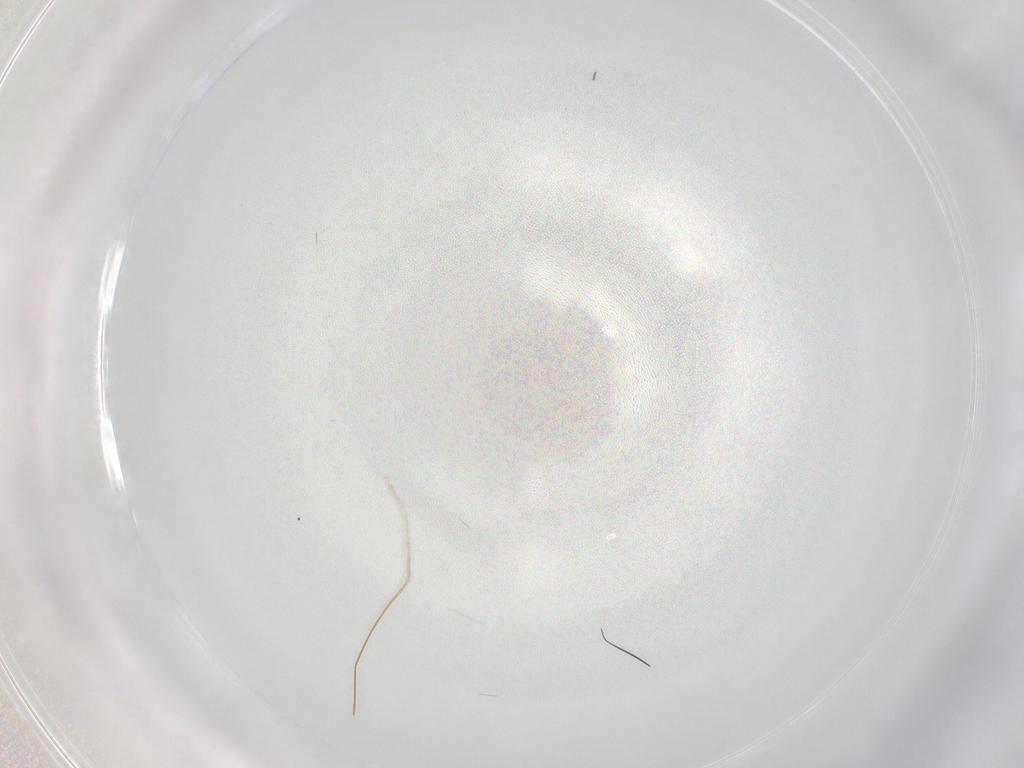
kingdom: Animalia
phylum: Arthropoda
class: Insecta
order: Diptera
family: Cecidomyiidae
